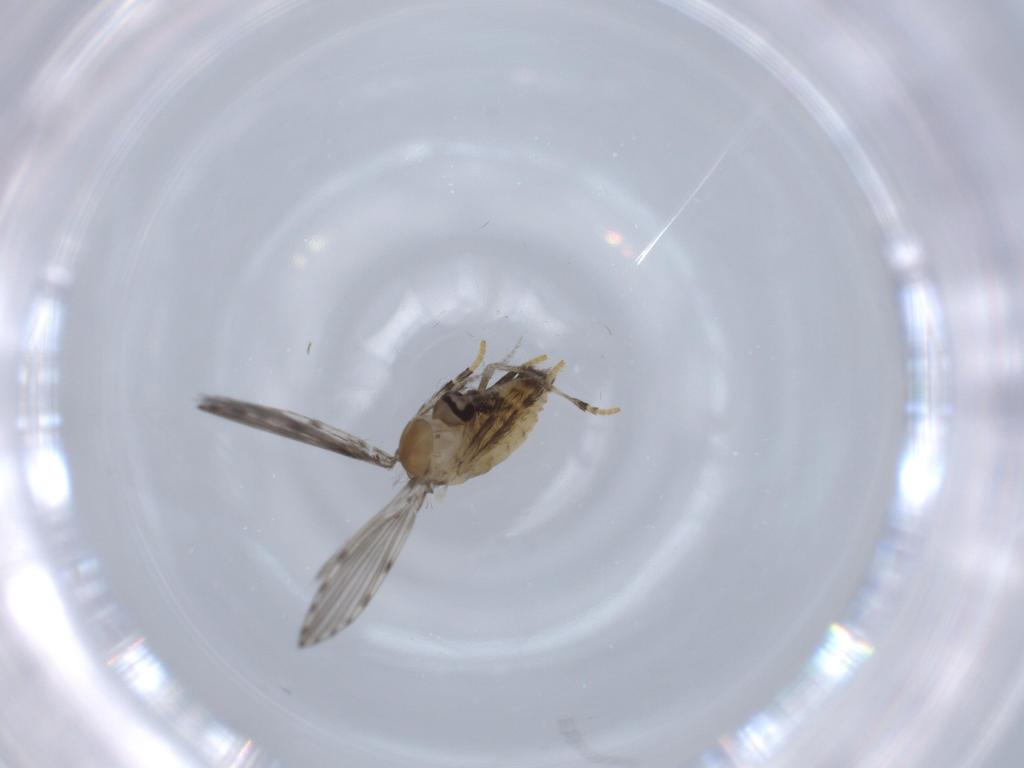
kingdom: Animalia
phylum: Arthropoda
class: Insecta
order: Diptera
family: Psychodidae
